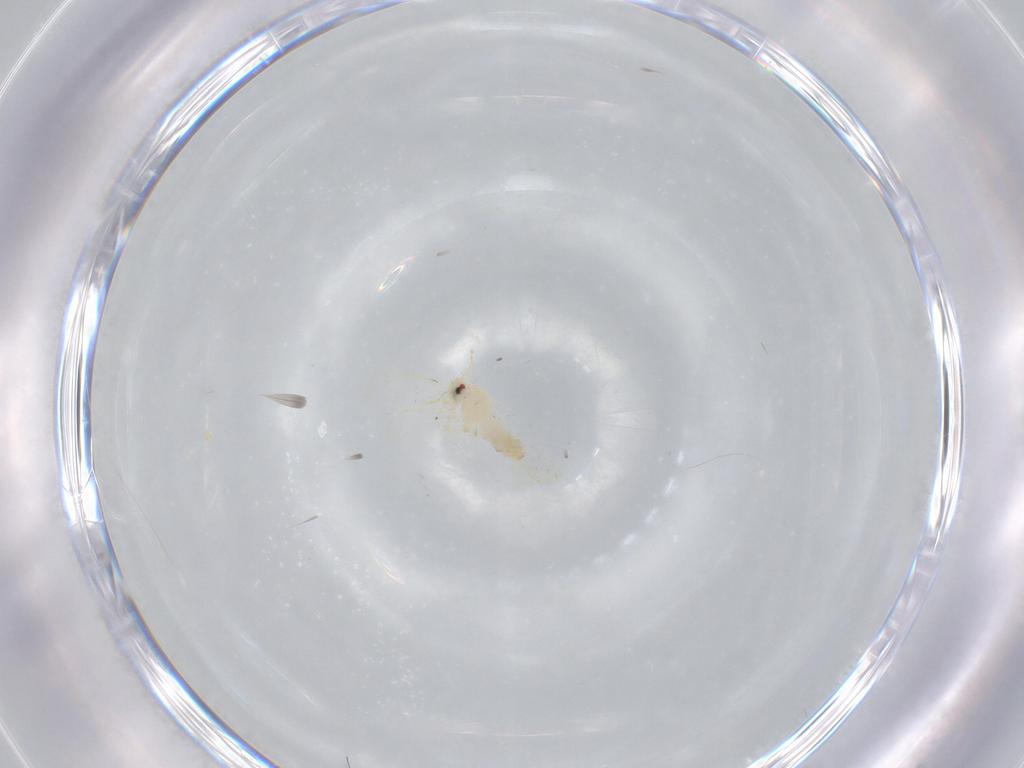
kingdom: Animalia
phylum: Arthropoda
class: Insecta
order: Hemiptera
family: Aleyrodidae
